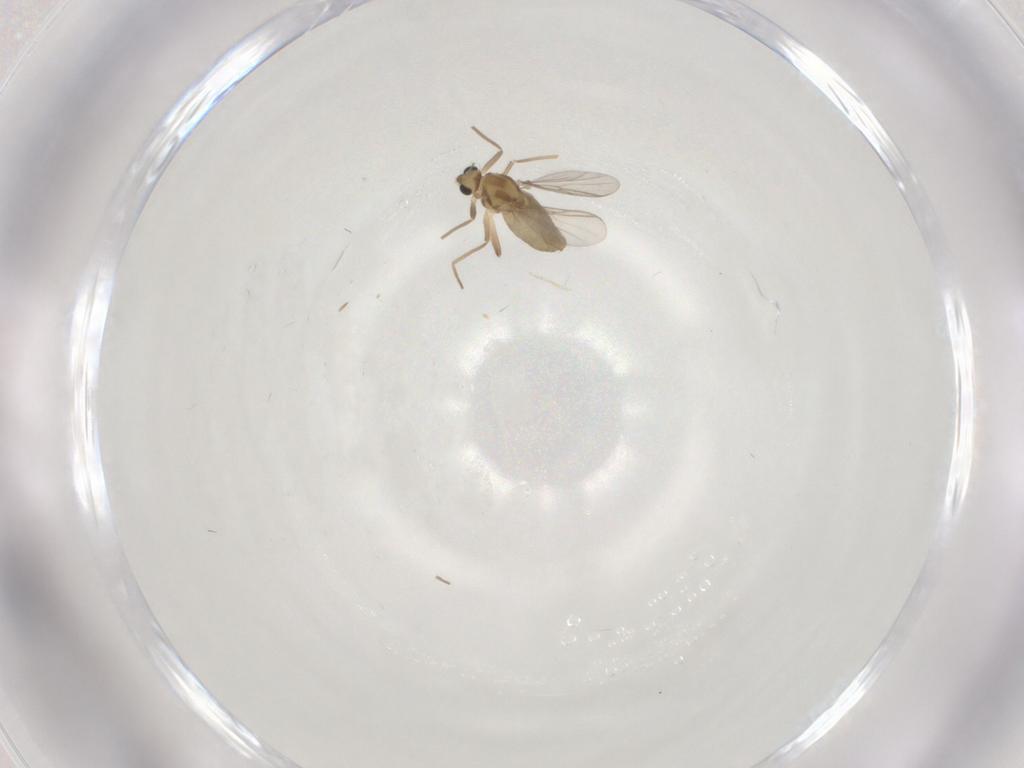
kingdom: Animalia
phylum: Arthropoda
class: Insecta
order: Diptera
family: Chironomidae
